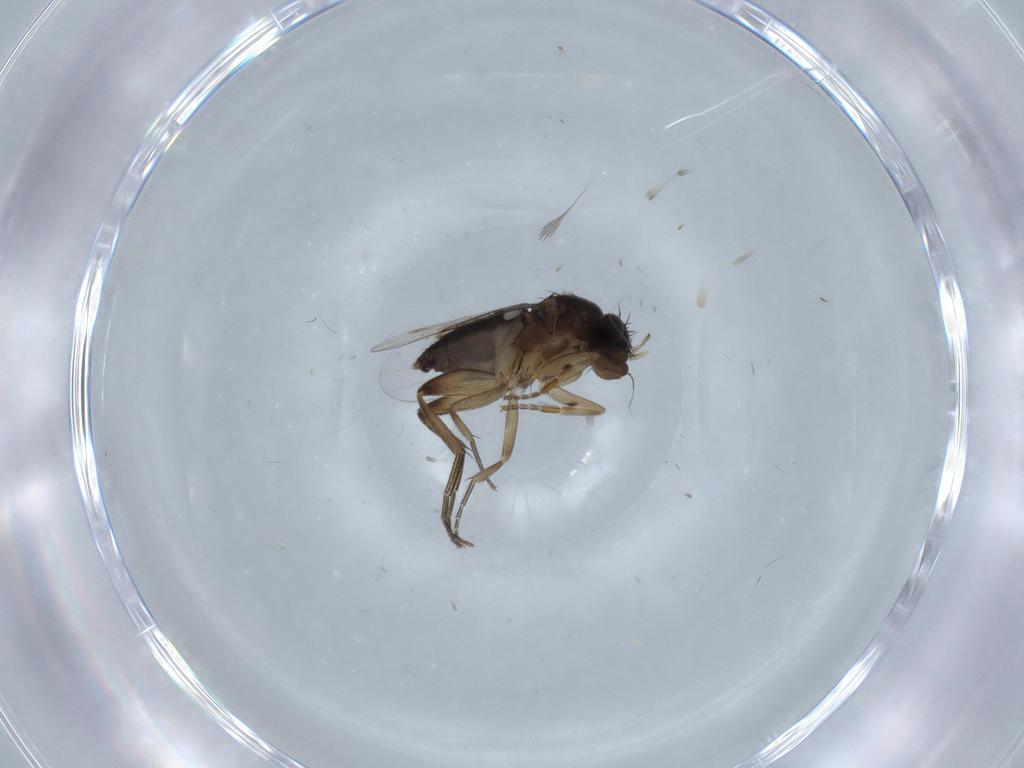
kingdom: Animalia
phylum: Arthropoda
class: Insecta
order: Diptera
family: Phoridae
